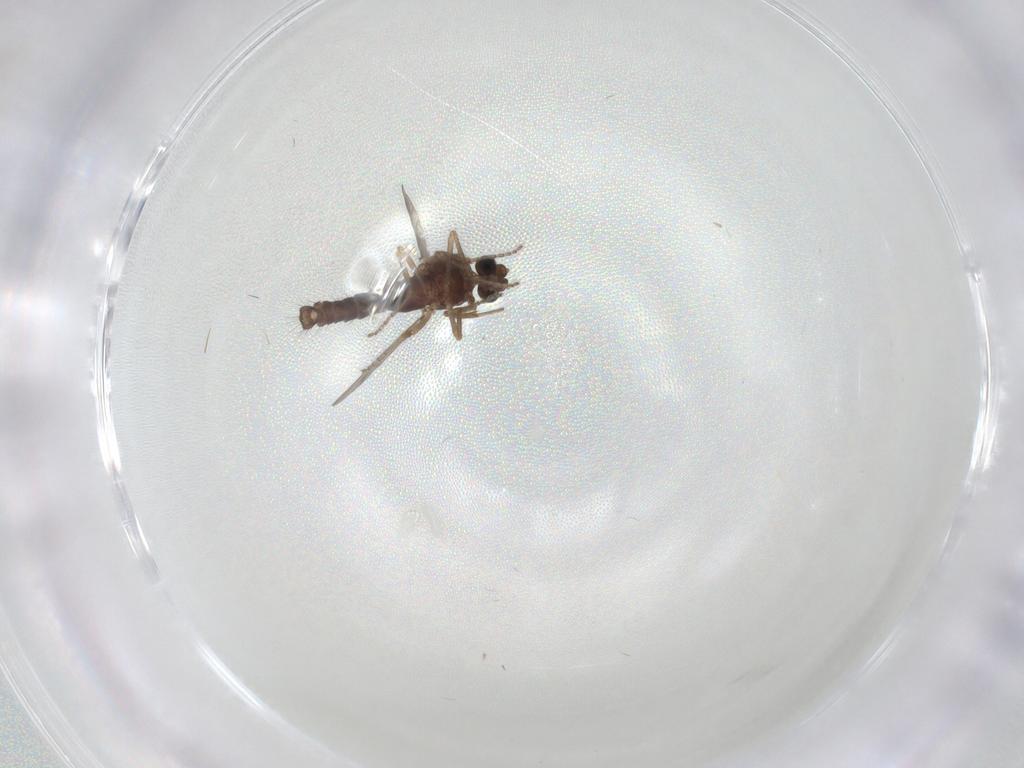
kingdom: Animalia
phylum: Arthropoda
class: Insecta
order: Diptera
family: Ceratopogonidae
